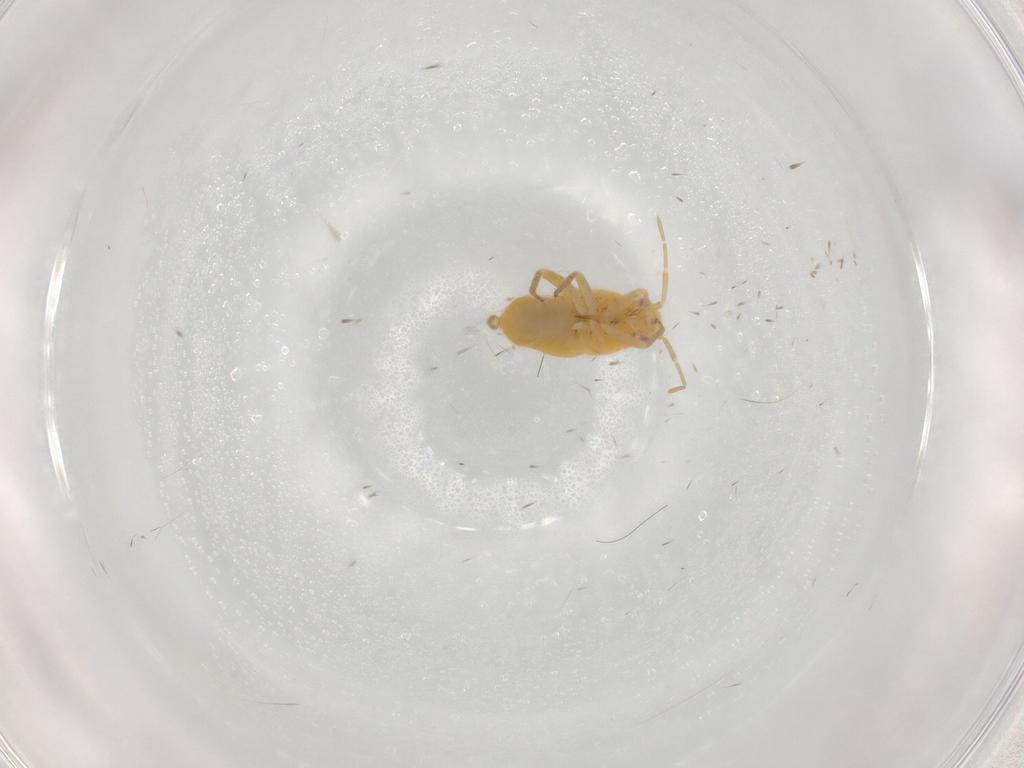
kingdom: Animalia
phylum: Arthropoda
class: Insecta
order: Hemiptera
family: Miridae
